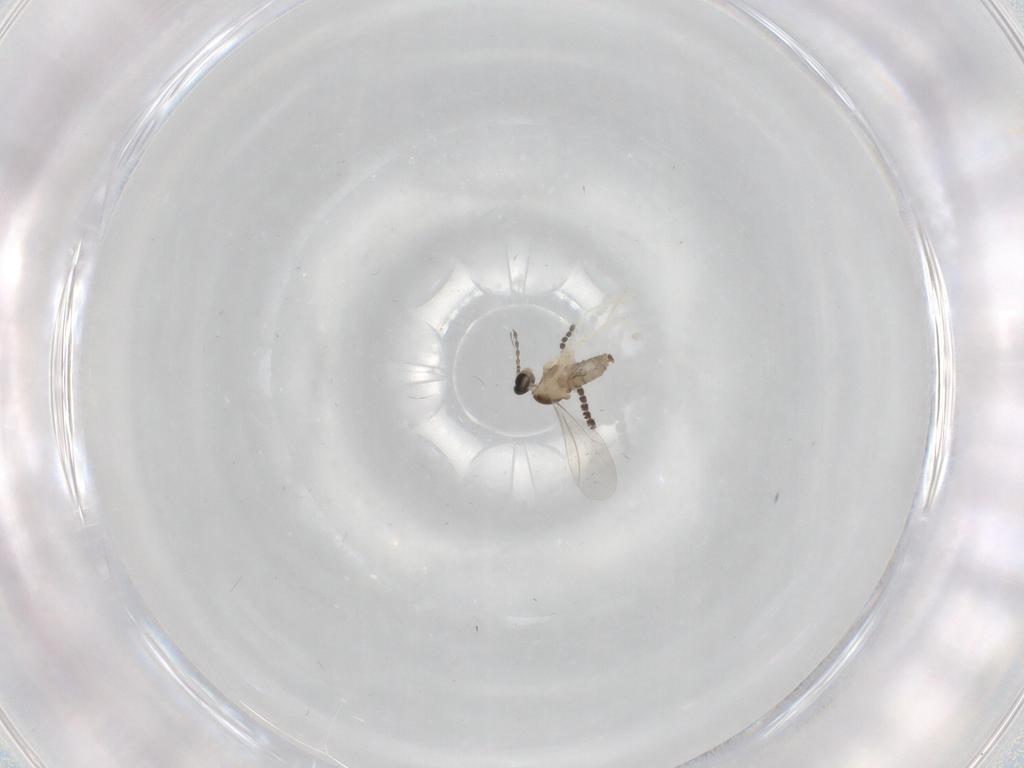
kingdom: Animalia
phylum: Arthropoda
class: Insecta
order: Diptera
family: Cecidomyiidae
